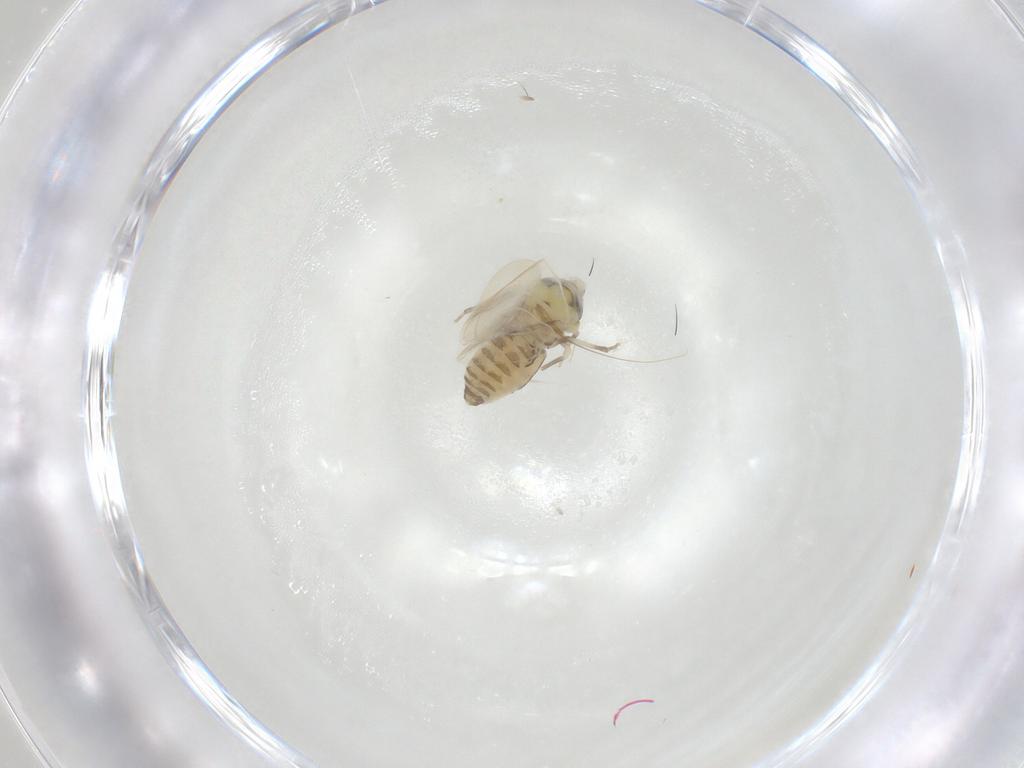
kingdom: Animalia
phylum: Arthropoda
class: Insecta
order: Hemiptera
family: Aleyrodidae
